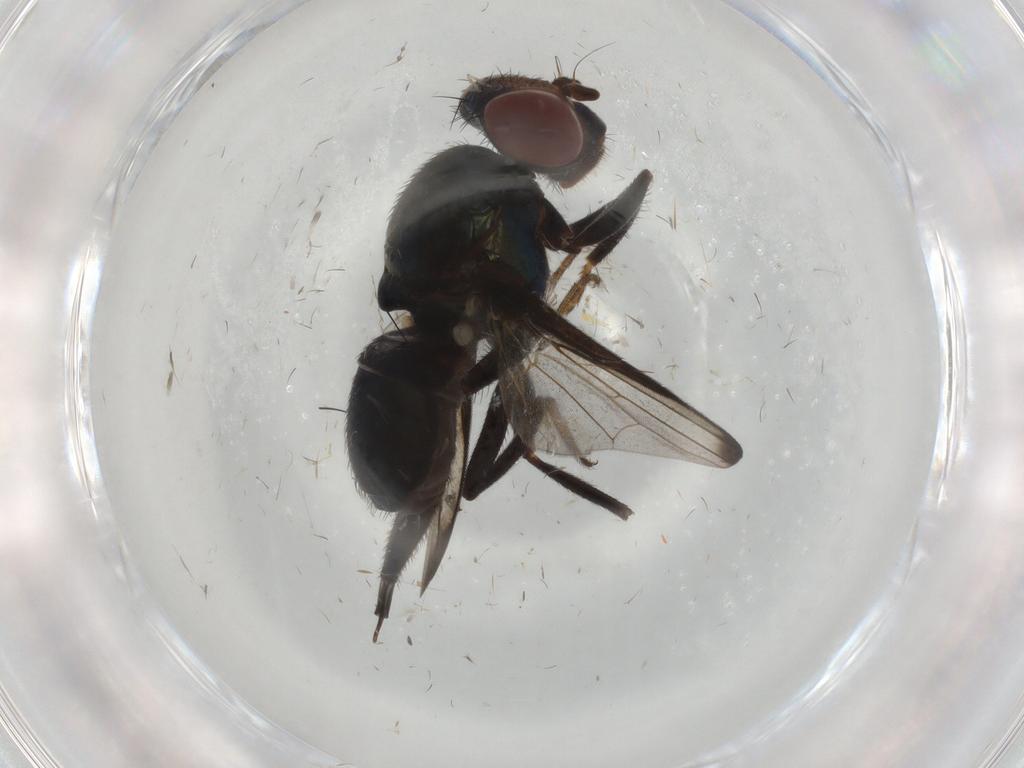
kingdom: Animalia
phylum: Arthropoda
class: Insecta
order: Diptera
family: Ulidiidae
